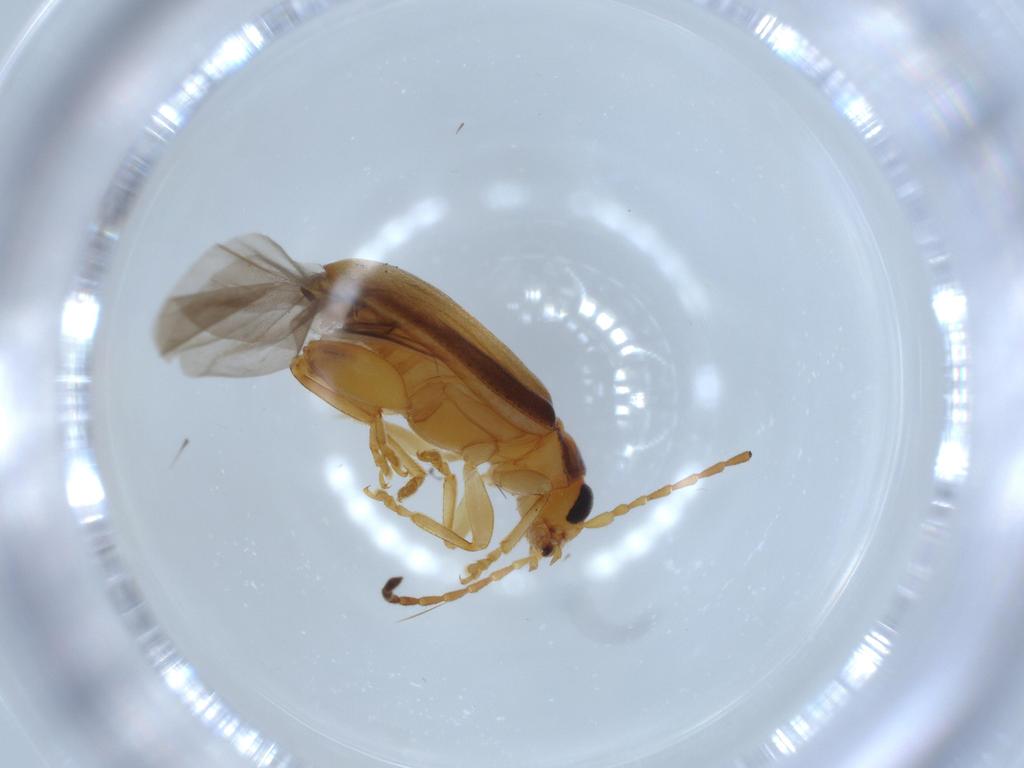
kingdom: Animalia
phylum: Arthropoda
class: Insecta
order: Coleoptera
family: Chrysomelidae
